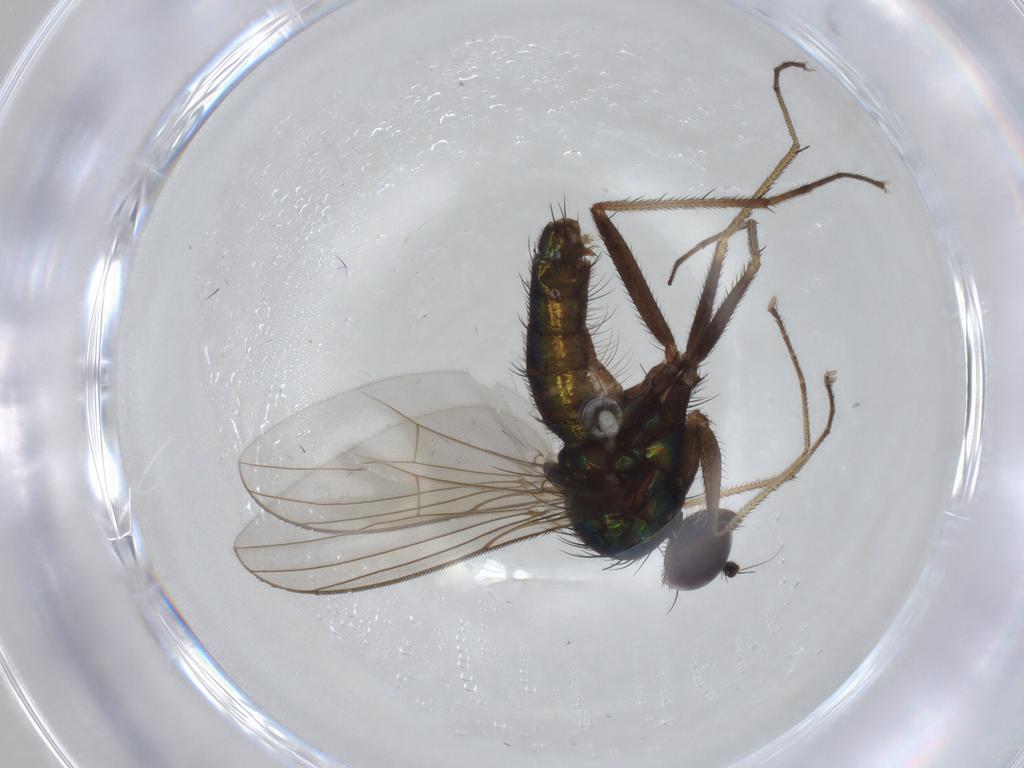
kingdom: Animalia
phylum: Arthropoda
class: Insecta
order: Diptera
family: Dolichopodidae
